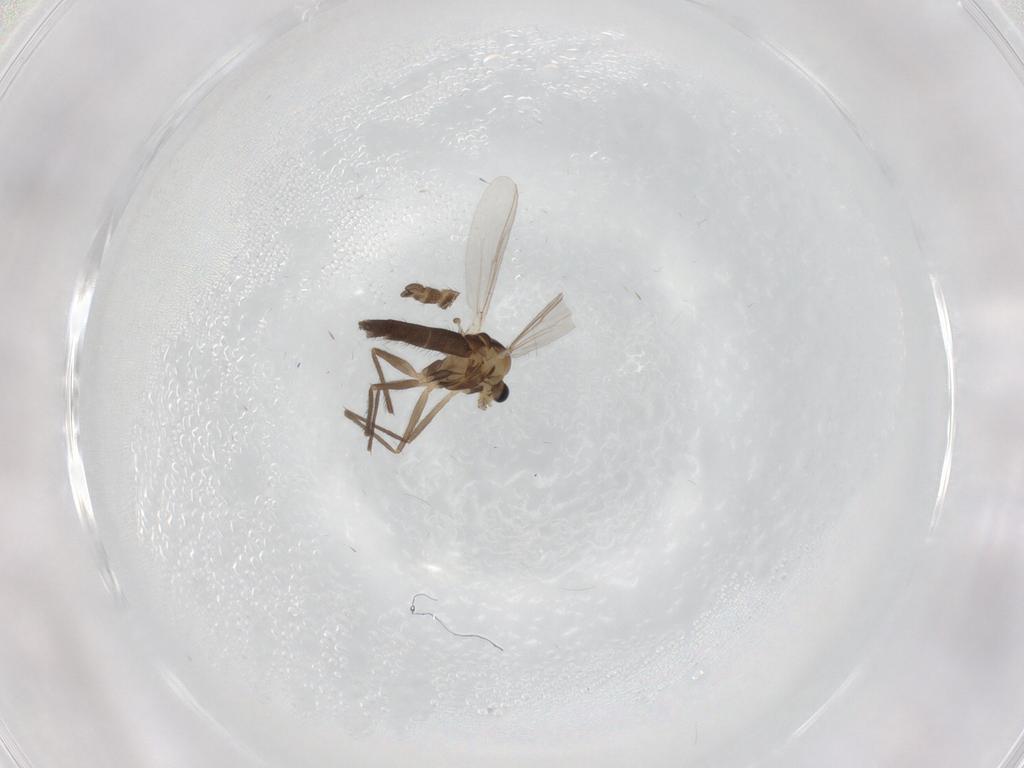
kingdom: Animalia
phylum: Arthropoda
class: Insecta
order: Diptera
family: Chironomidae
